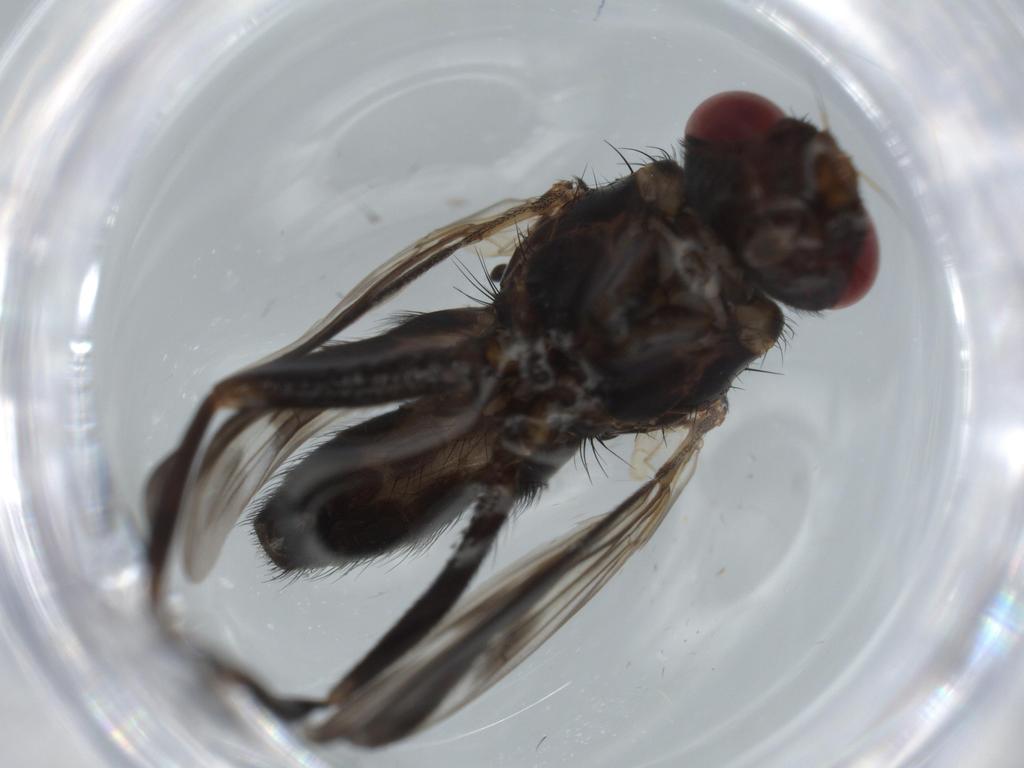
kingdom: Animalia
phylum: Arthropoda
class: Insecta
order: Diptera
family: Calliphoridae
